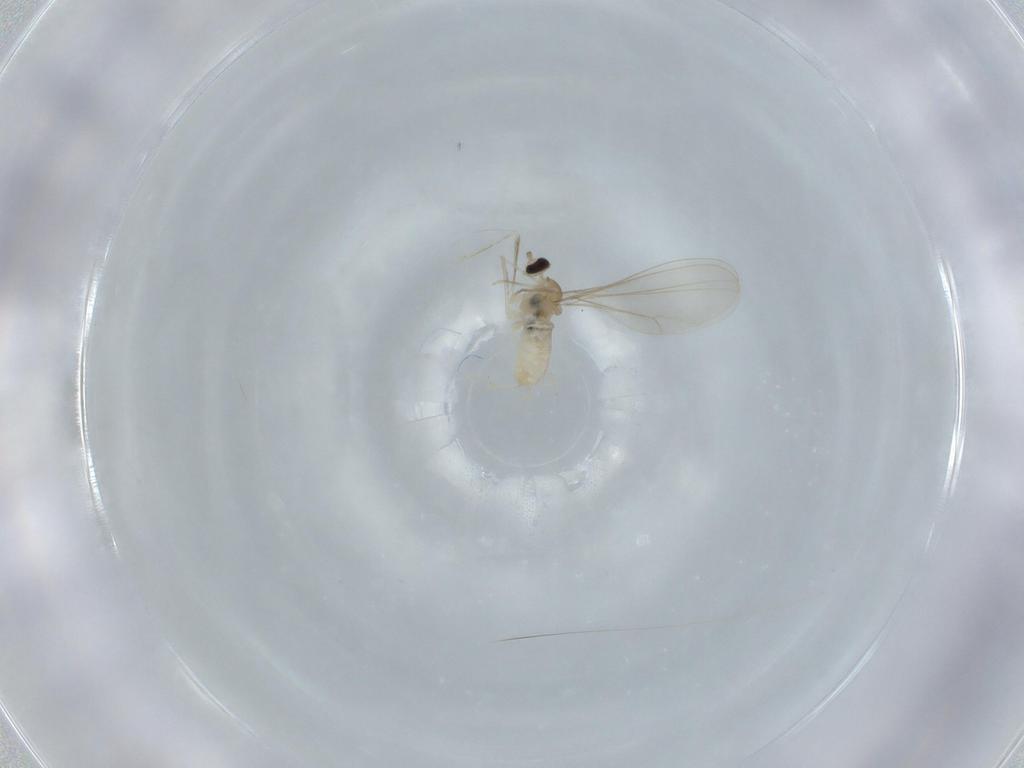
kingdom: Animalia
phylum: Arthropoda
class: Insecta
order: Diptera
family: Cecidomyiidae
